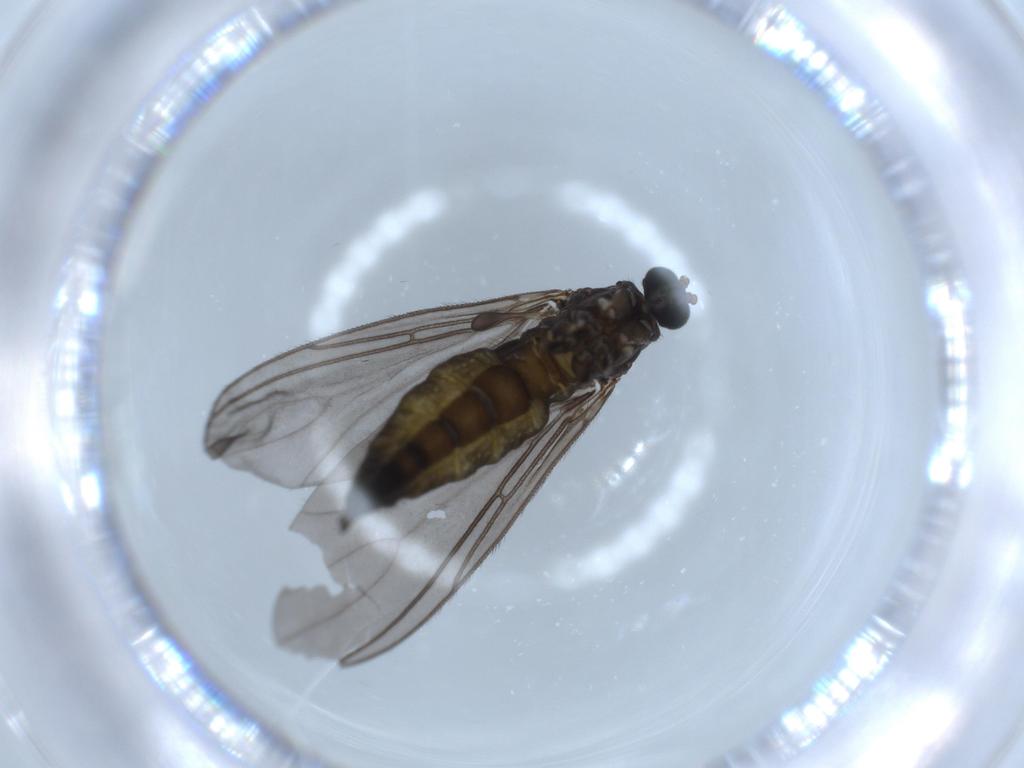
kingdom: Animalia
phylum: Arthropoda
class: Insecta
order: Diptera
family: Sciaridae
